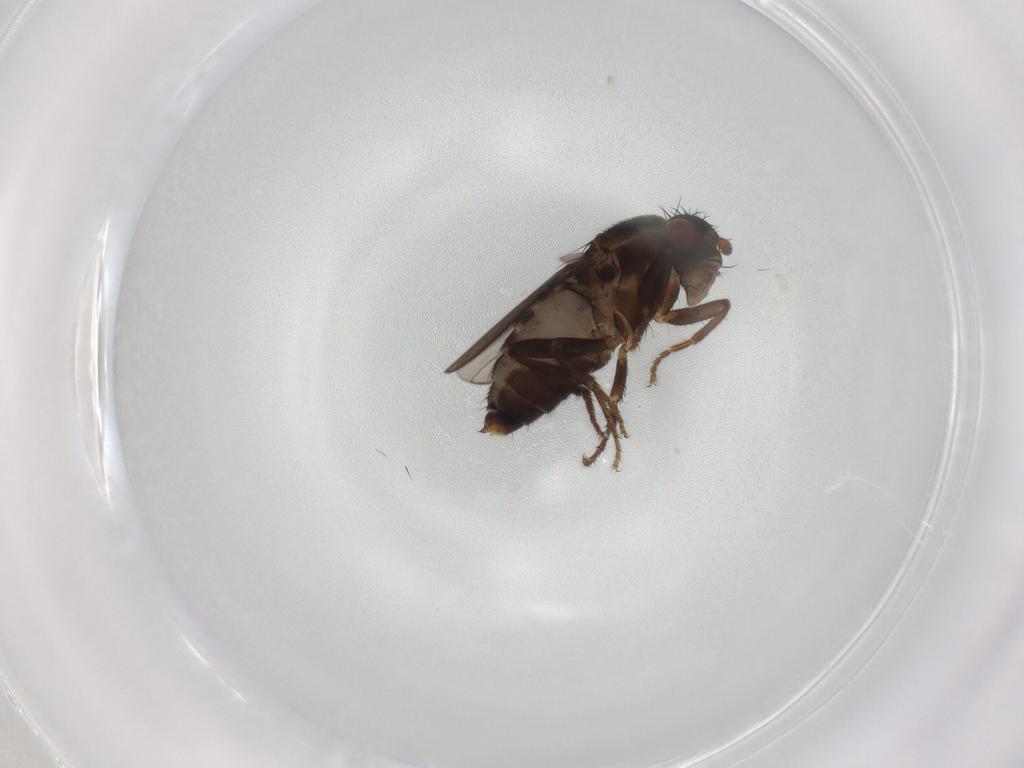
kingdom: Animalia
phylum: Arthropoda
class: Insecta
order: Diptera
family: Sphaeroceridae
